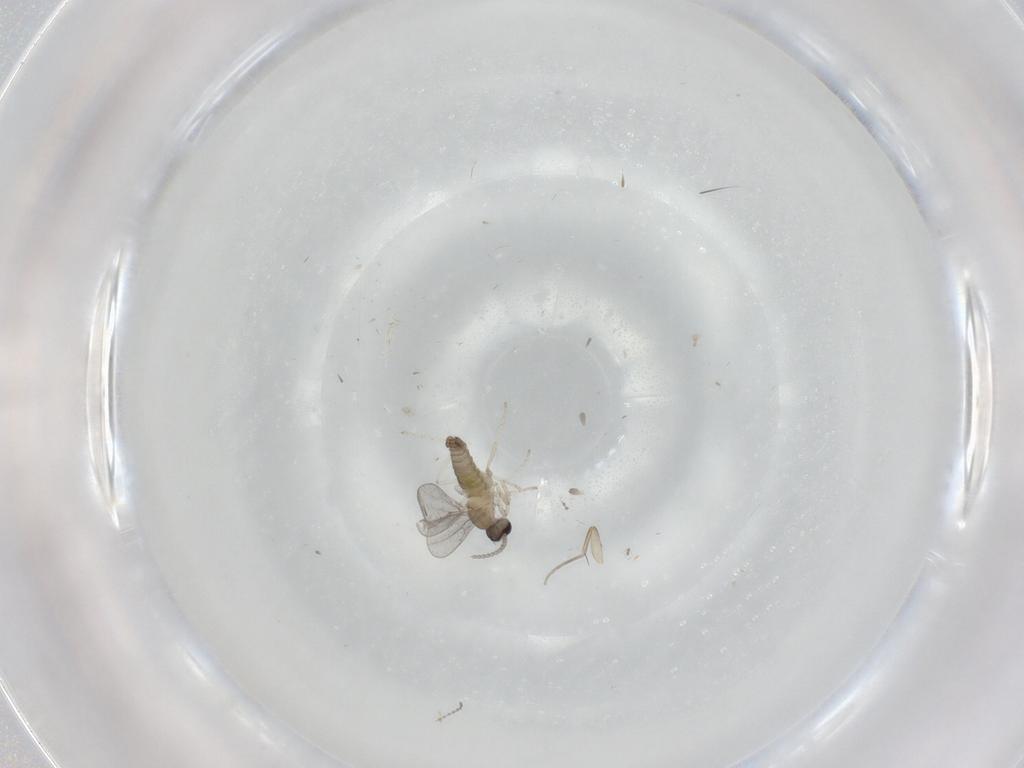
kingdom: Animalia
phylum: Arthropoda
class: Insecta
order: Diptera
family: Cecidomyiidae
